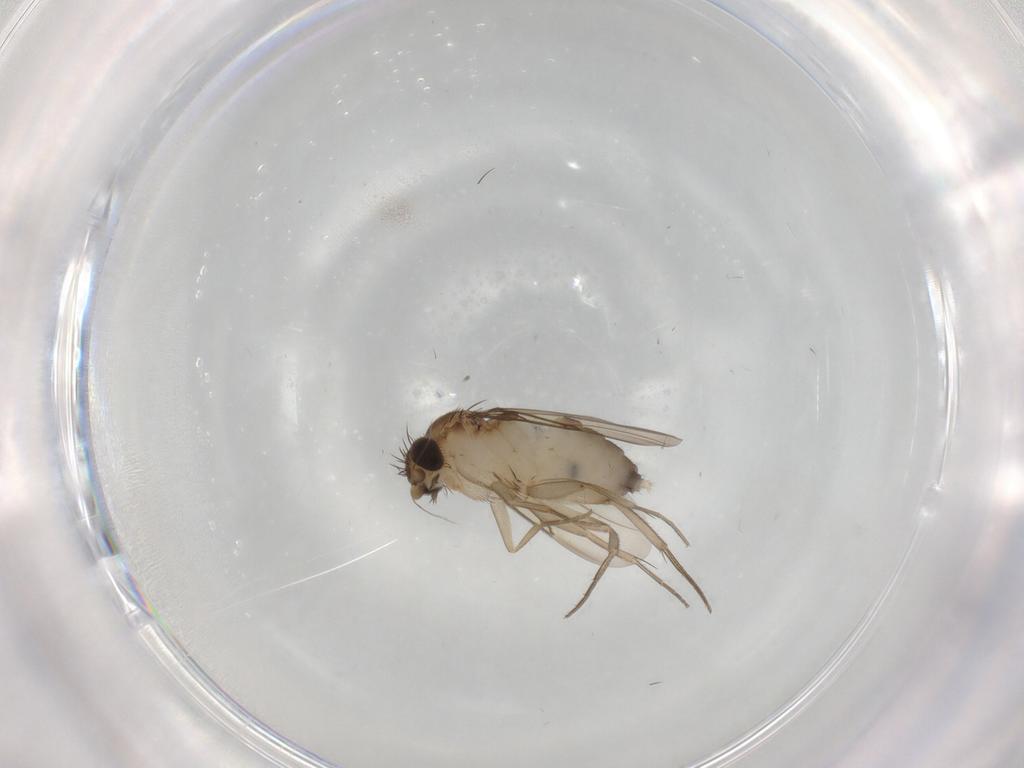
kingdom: Animalia
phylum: Arthropoda
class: Insecta
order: Diptera
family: Phoridae
